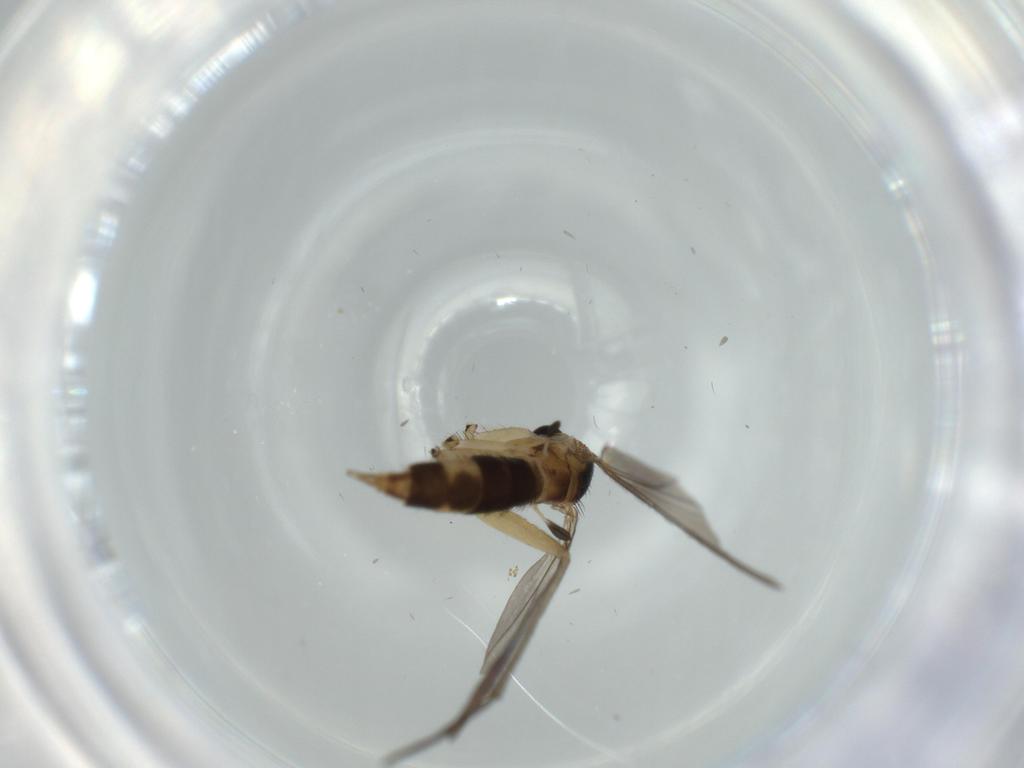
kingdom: Animalia
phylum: Arthropoda
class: Insecta
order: Diptera
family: Sciaridae
